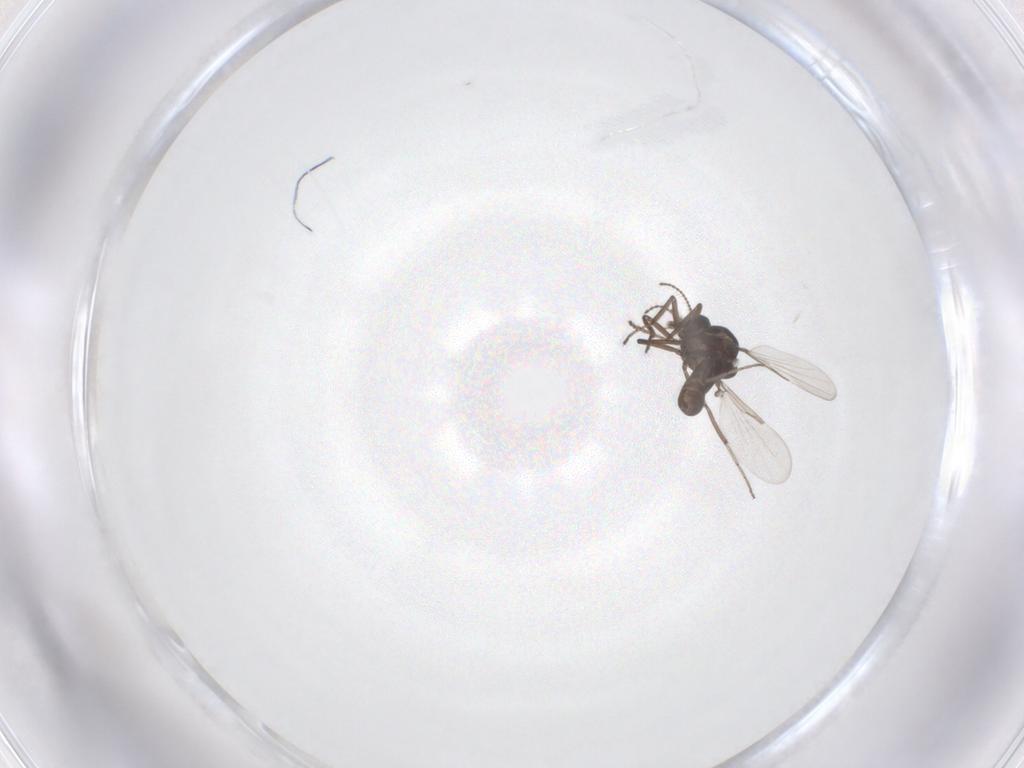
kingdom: Animalia
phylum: Arthropoda
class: Insecta
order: Diptera
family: Ceratopogonidae
